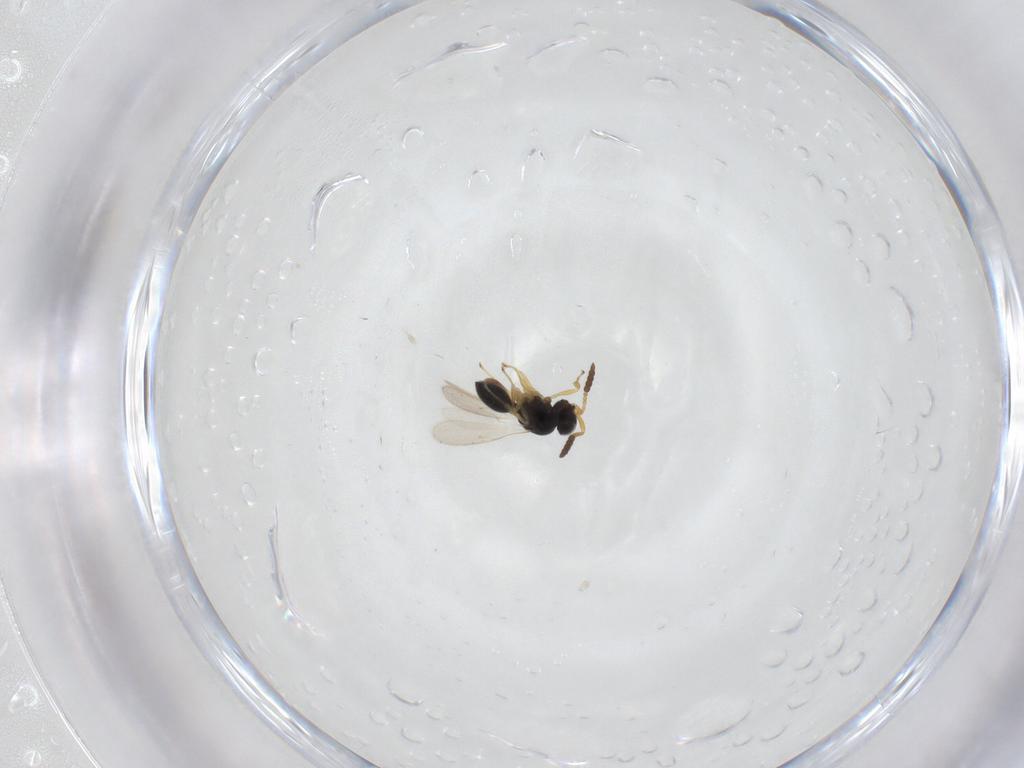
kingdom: Animalia
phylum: Arthropoda
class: Insecta
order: Hymenoptera
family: Scelionidae
